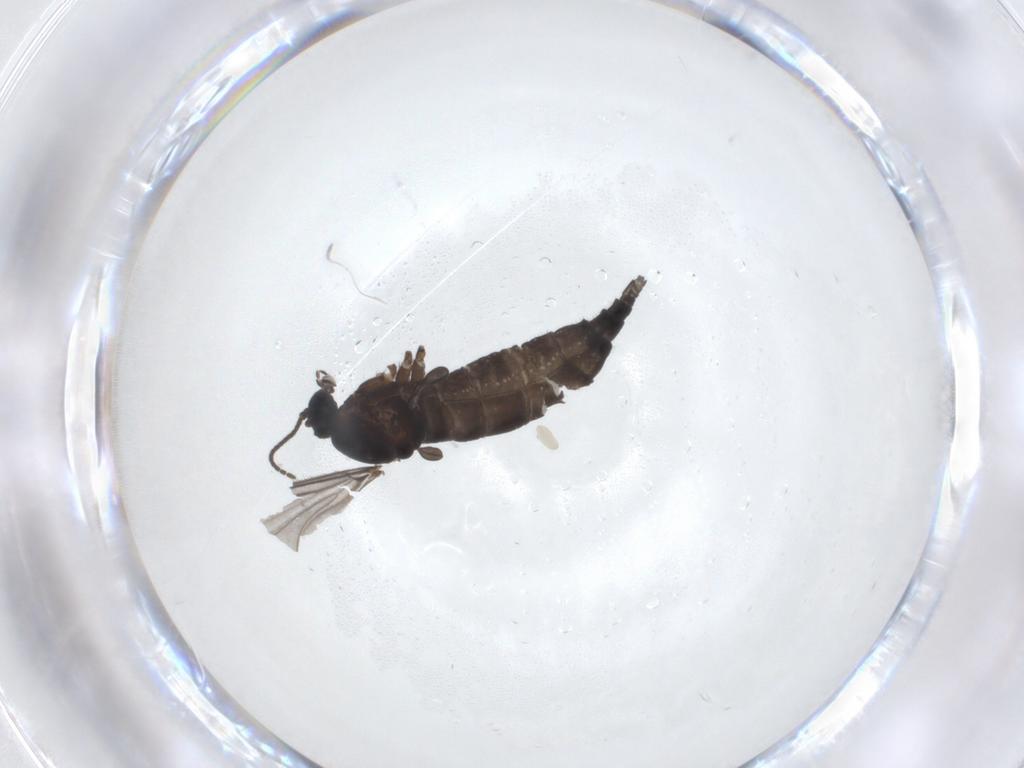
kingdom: Animalia
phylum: Arthropoda
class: Insecta
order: Diptera
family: Sciaridae
